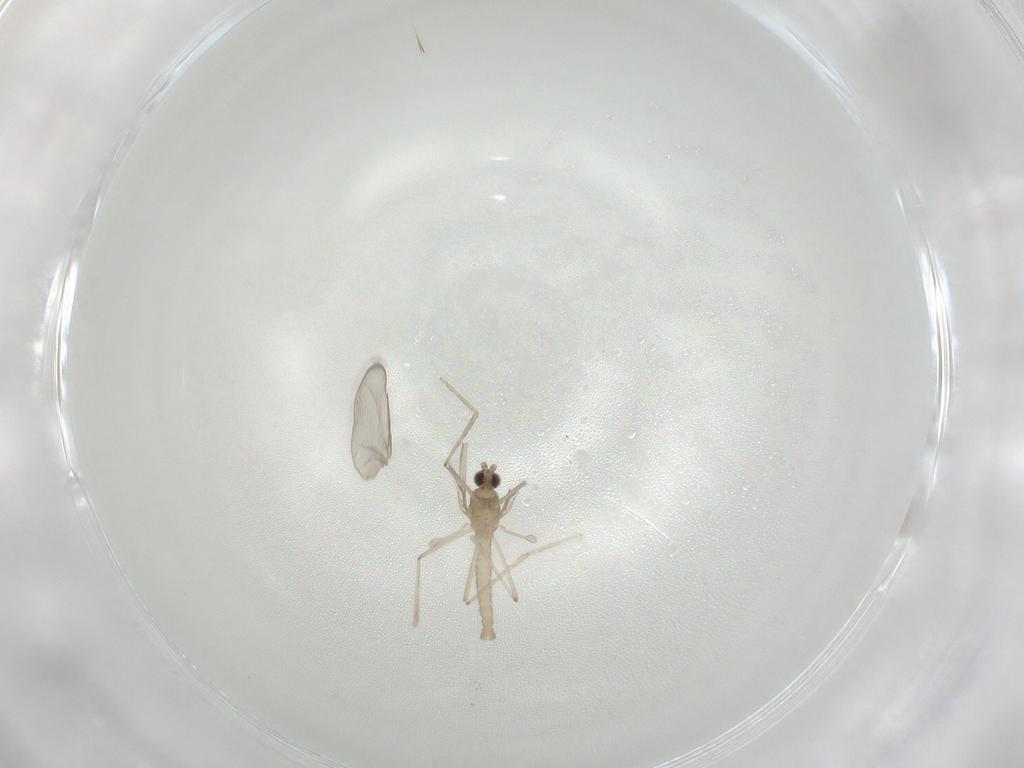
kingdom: Animalia
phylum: Arthropoda
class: Insecta
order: Diptera
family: Cecidomyiidae
